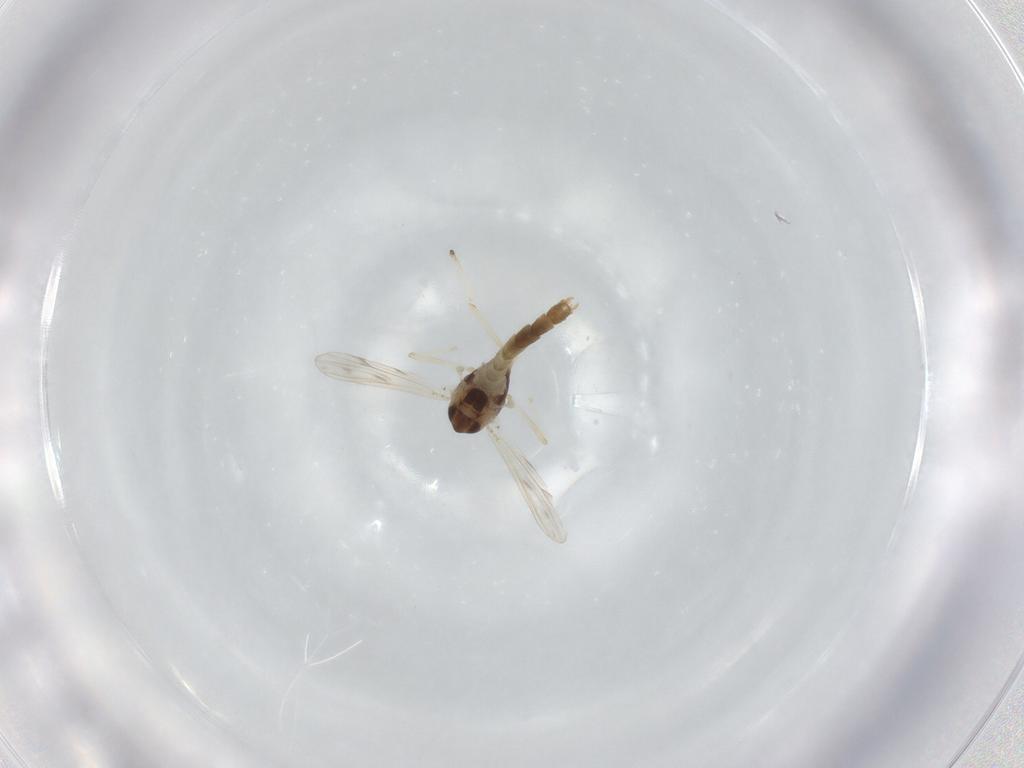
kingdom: Animalia
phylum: Arthropoda
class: Insecta
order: Diptera
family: Chironomidae
